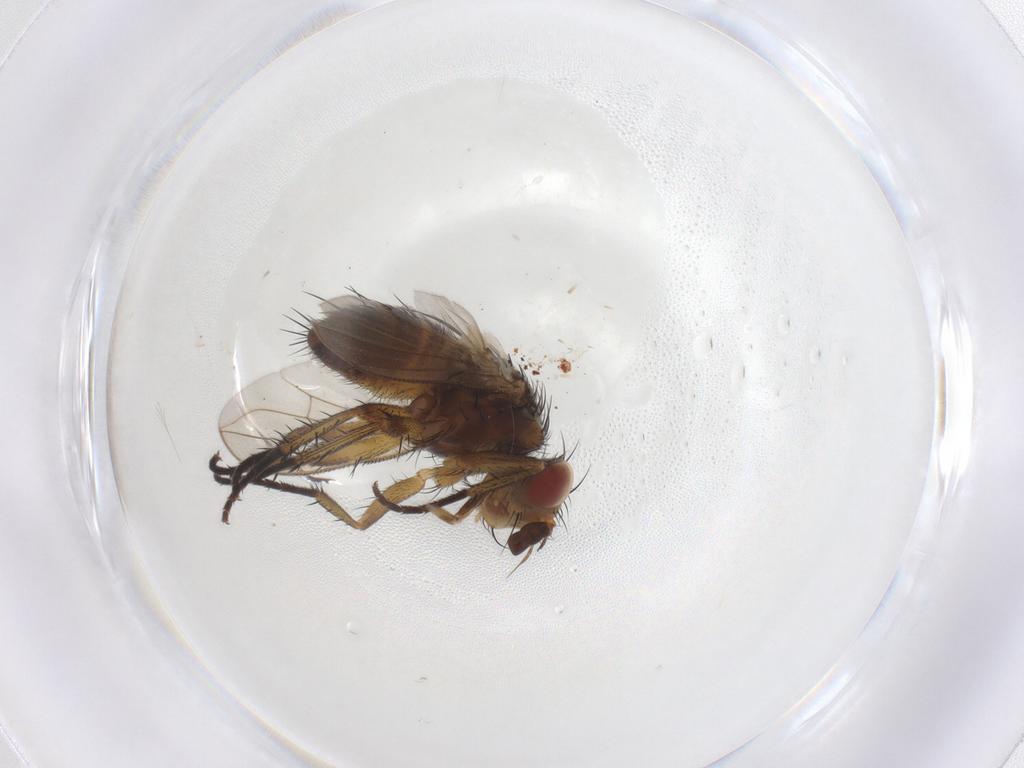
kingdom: Animalia
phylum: Arthropoda
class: Insecta
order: Diptera
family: Tachinidae
